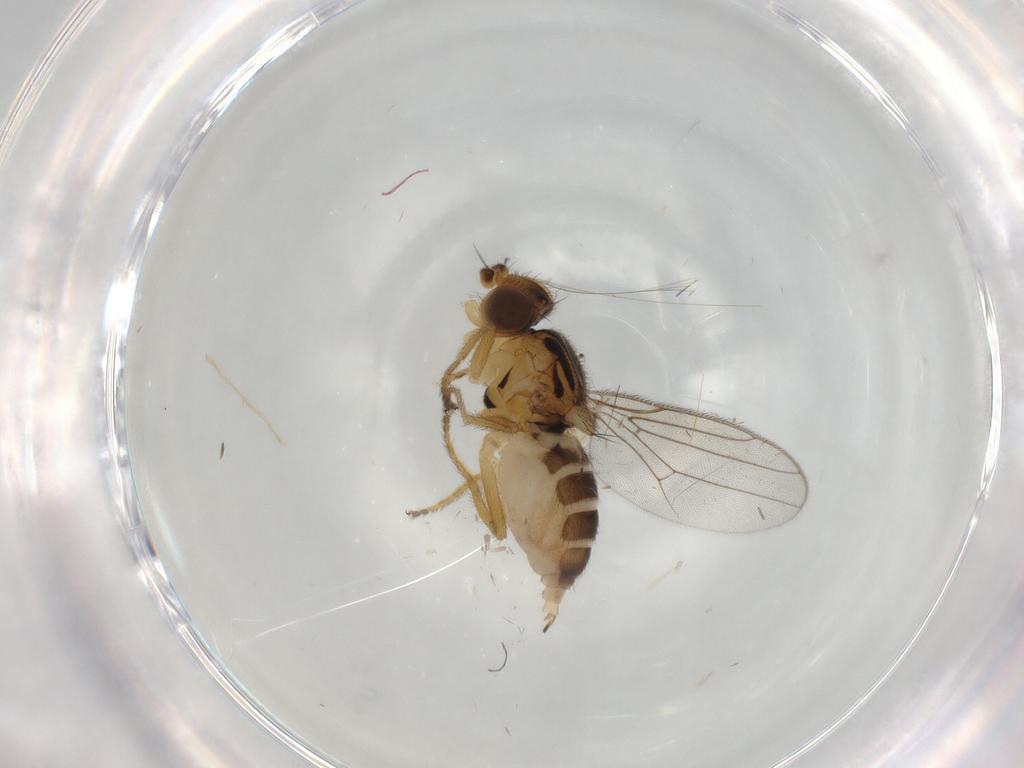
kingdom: Animalia
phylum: Arthropoda
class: Insecta
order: Diptera
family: Chloropidae
